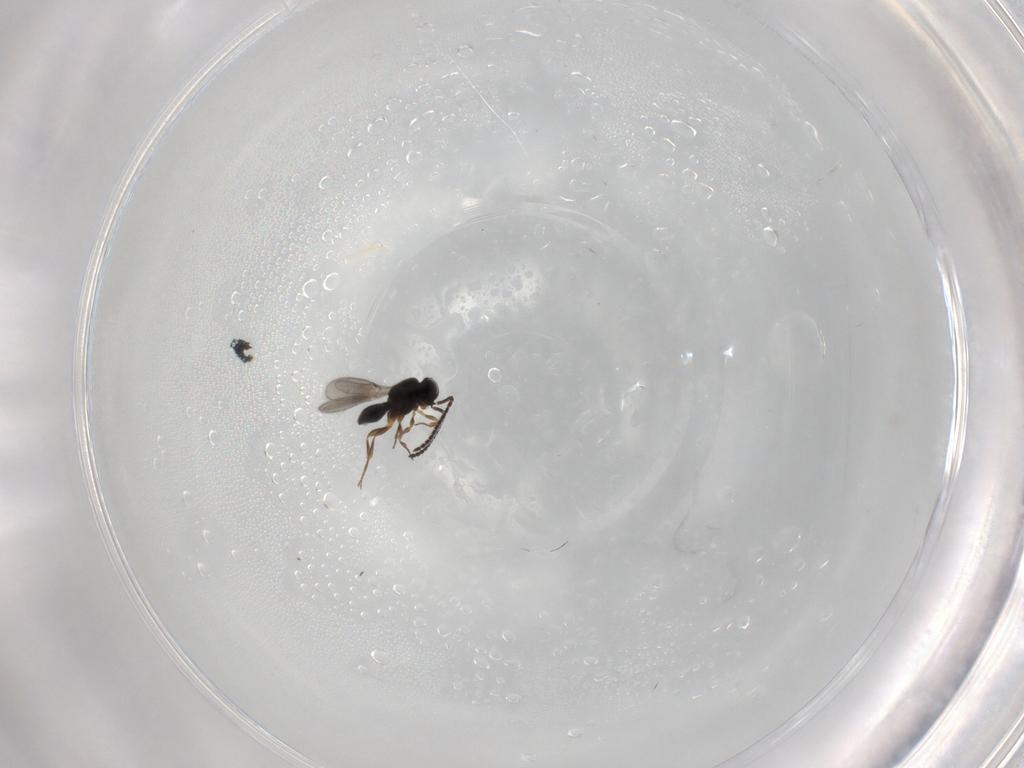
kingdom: Animalia
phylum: Arthropoda
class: Insecta
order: Hymenoptera
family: Scelionidae
